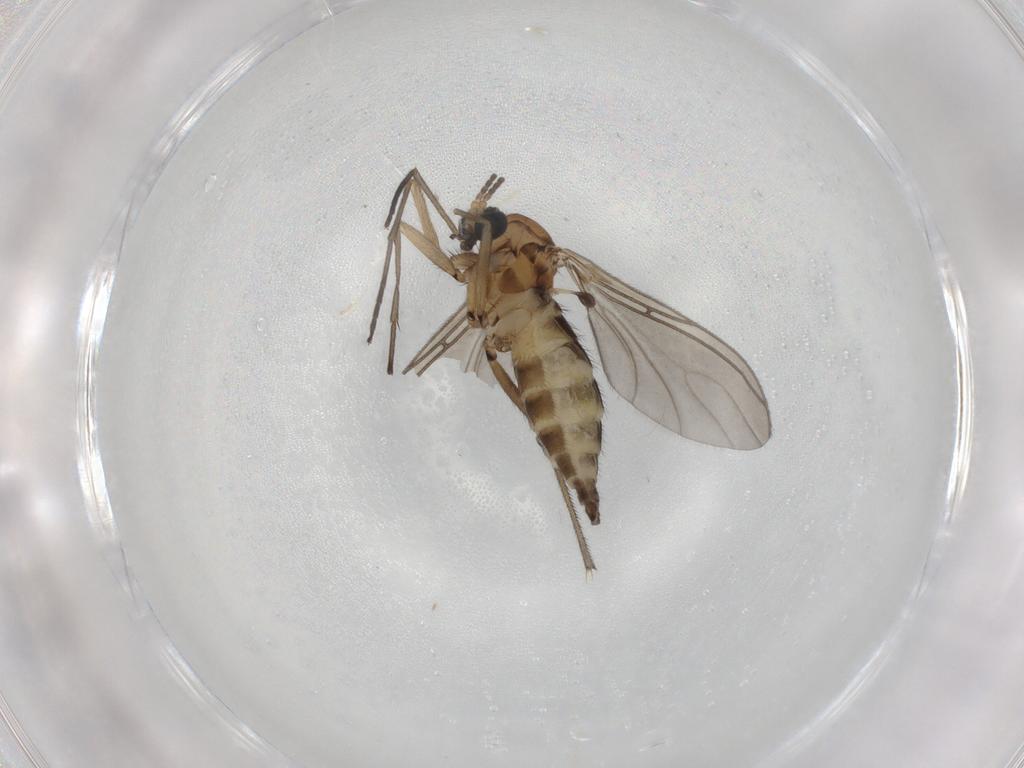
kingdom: Animalia
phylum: Arthropoda
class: Insecta
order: Diptera
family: Sciaridae
